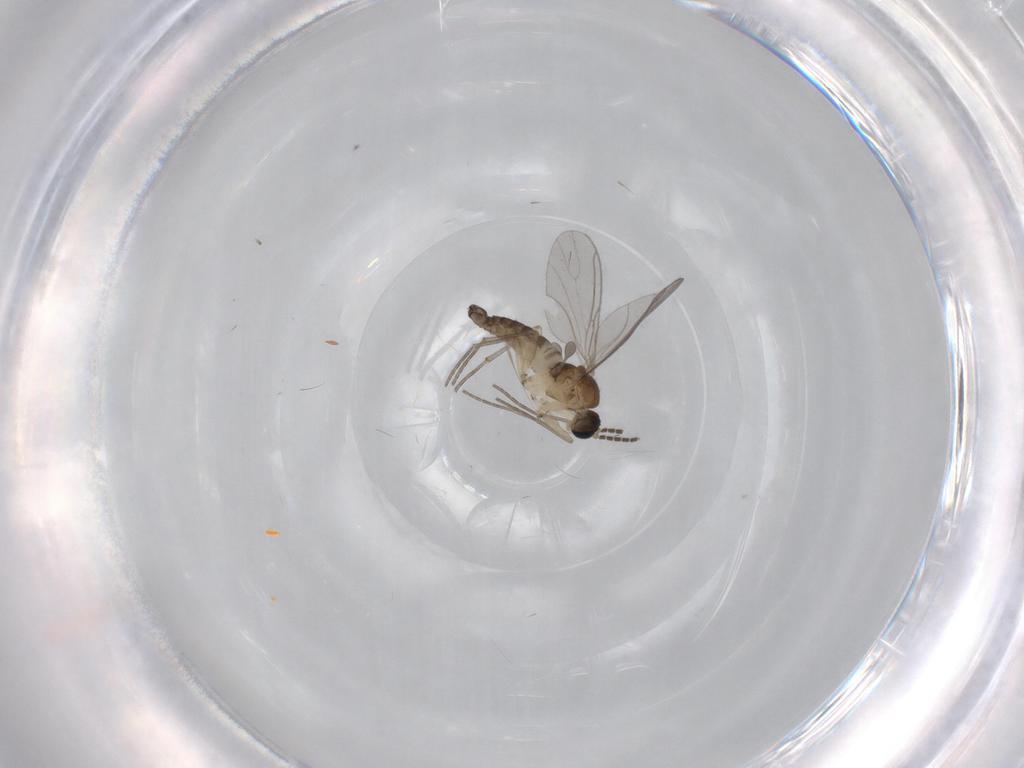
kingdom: Animalia
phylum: Arthropoda
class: Insecta
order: Diptera
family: Sciaridae
